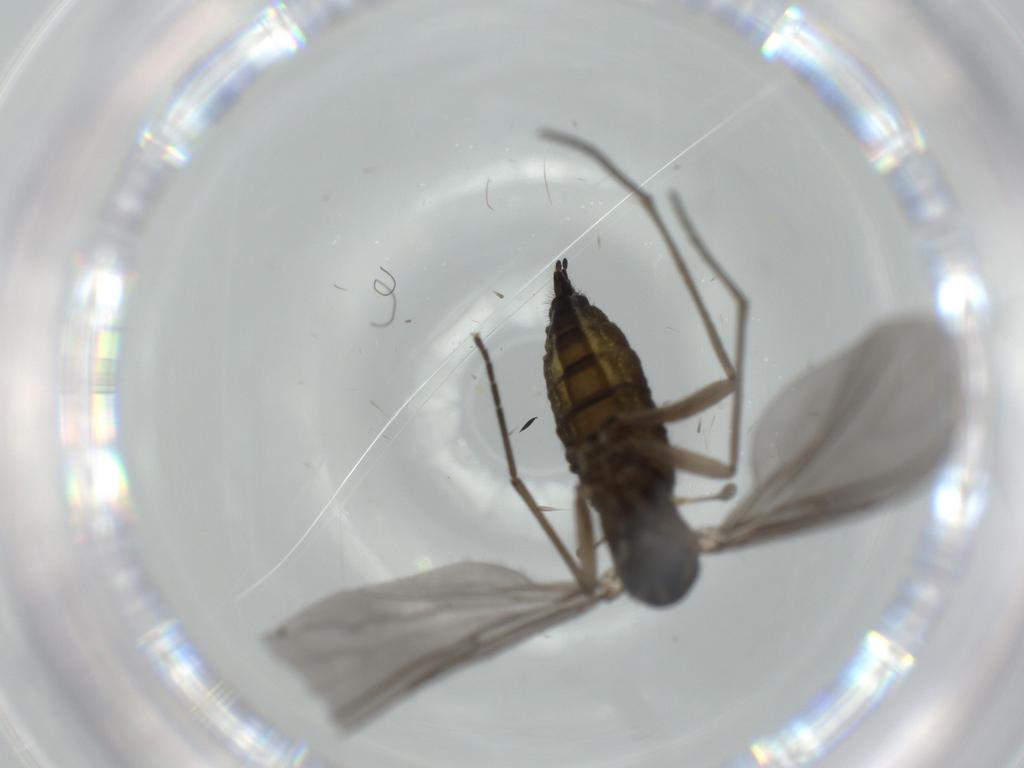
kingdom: Animalia
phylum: Arthropoda
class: Insecta
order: Diptera
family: Sciaridae
